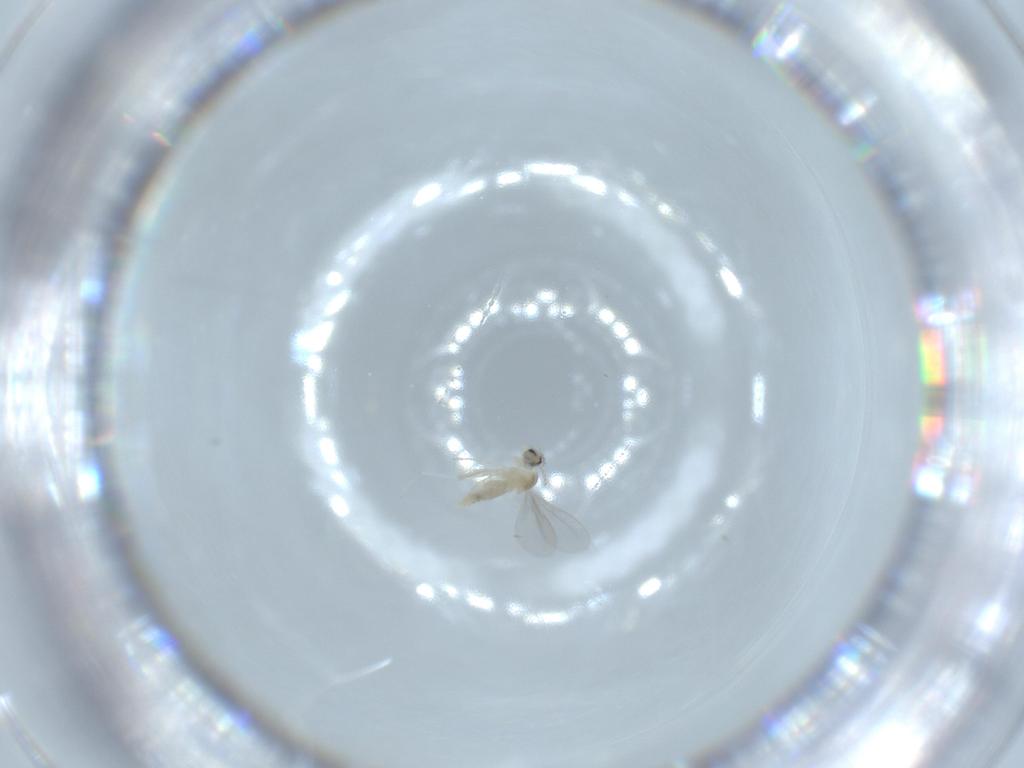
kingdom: Animalia
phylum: Arthropoda
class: Insecta
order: Diptera
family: Cecidomyiidae
